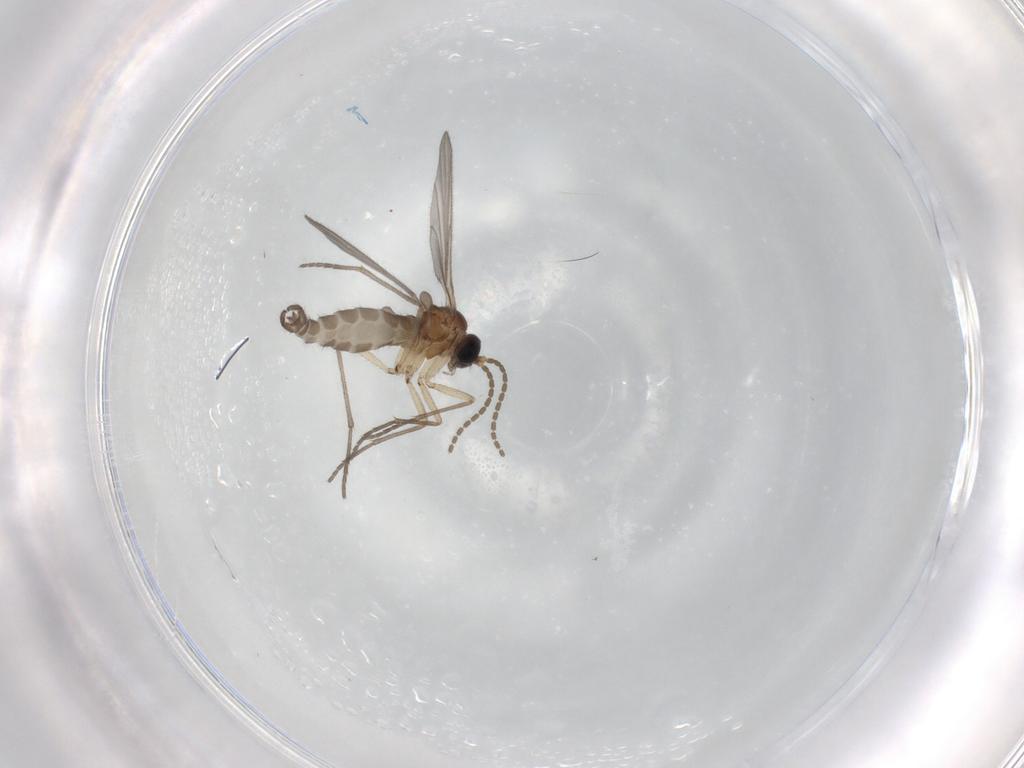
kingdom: Animalia
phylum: Arthropoda
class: Insecta
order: Diptera
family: Sciaridae
